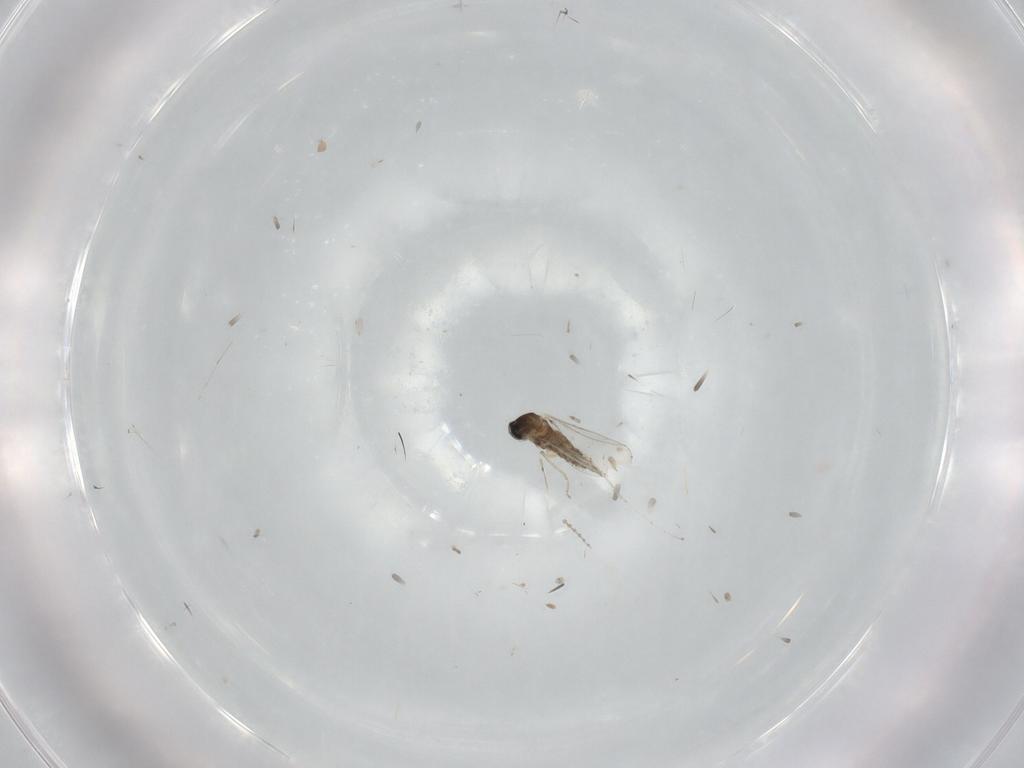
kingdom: Animalia
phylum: Arthropoda
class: Insecta
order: Diptera
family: Cecidomyiidae
